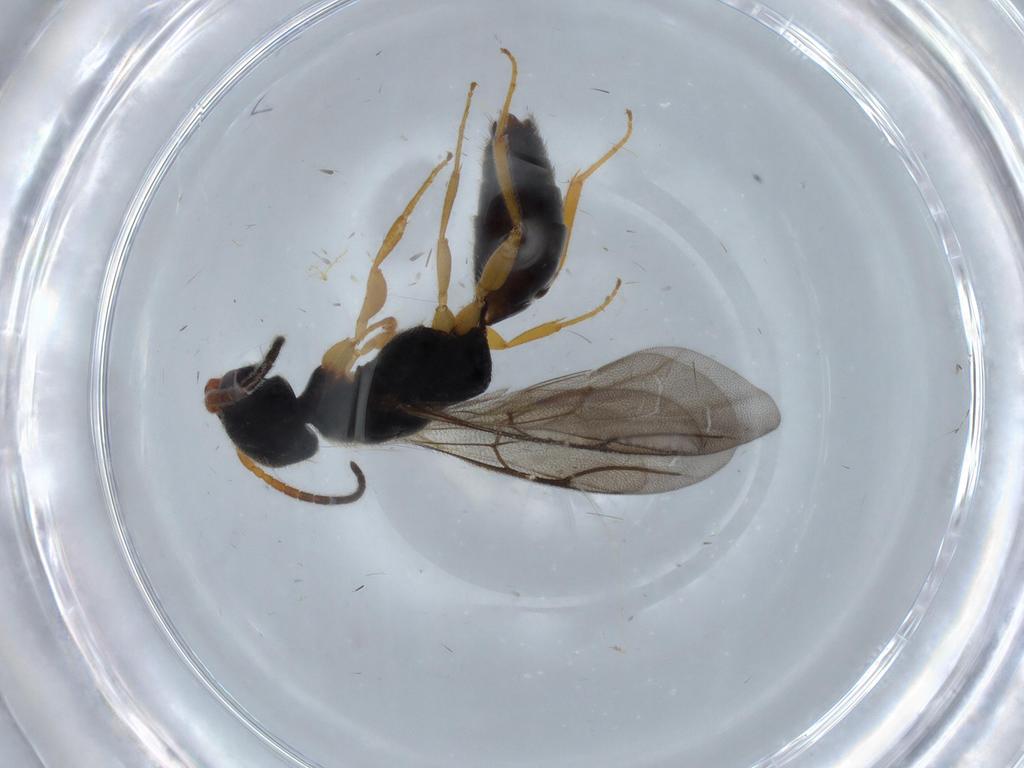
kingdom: Animalia
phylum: Arthropoda
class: Insecta
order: Hymenoptera
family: Bethylidae
